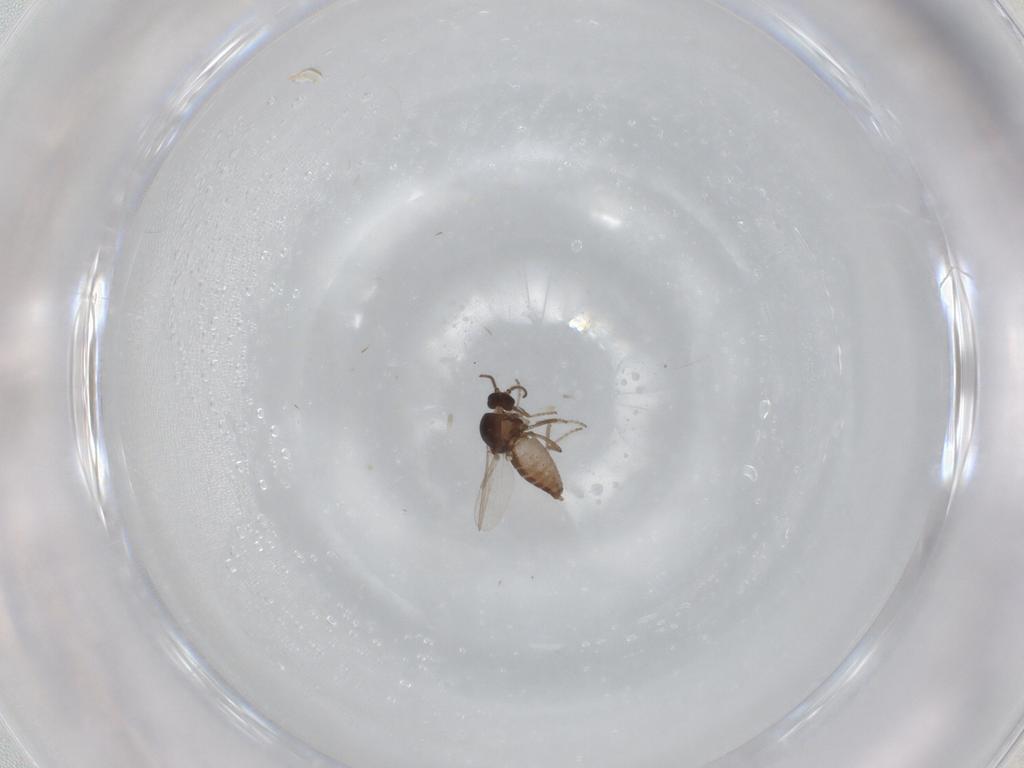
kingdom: Animalia
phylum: Arthropoda
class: Insecta
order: Diptera
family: Ceratopogonidae
